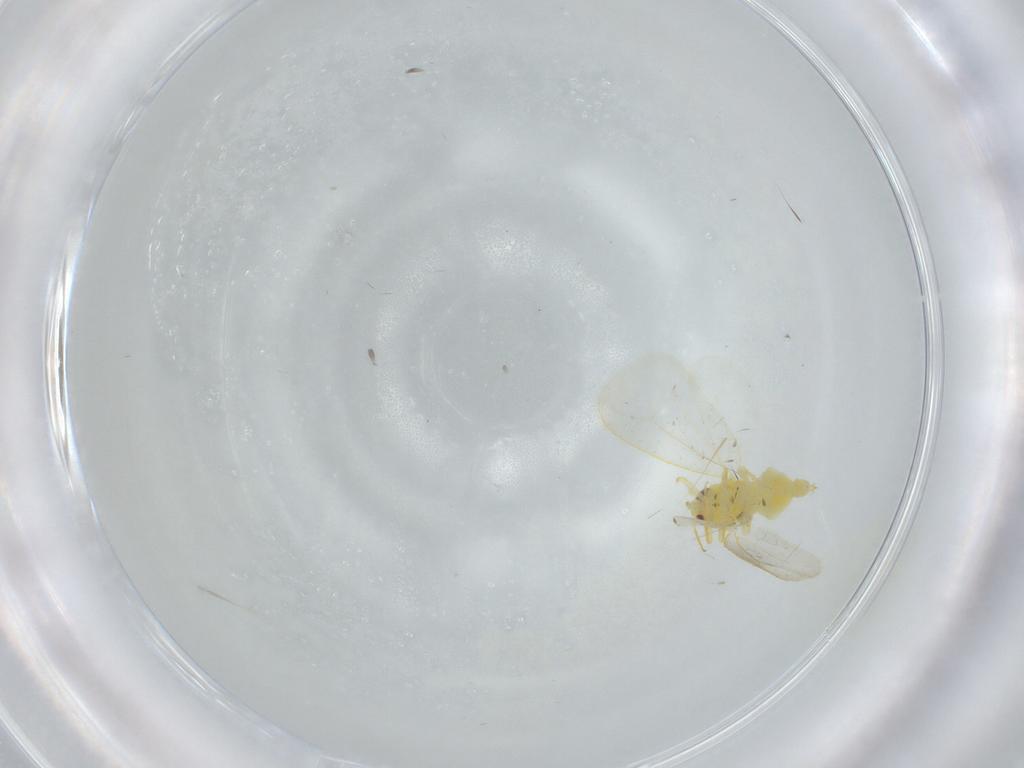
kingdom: Animalia
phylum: Arthropoda
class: Insecta
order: Hemiptera
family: Aleyrodidae
